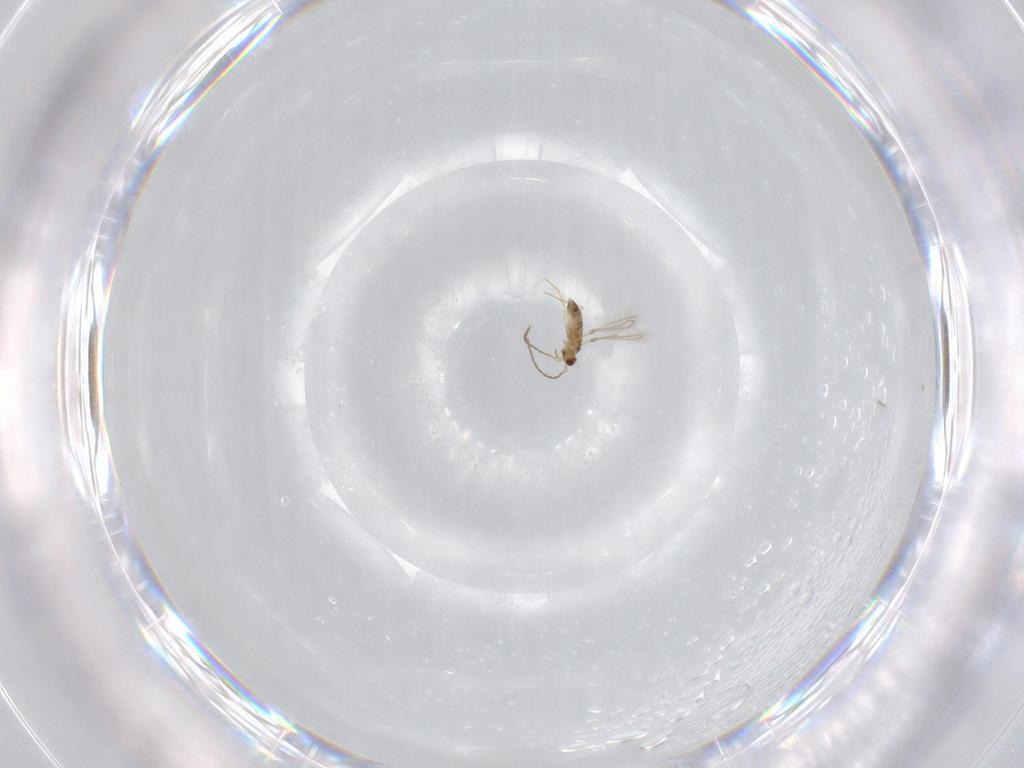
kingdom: Animalia
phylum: Arthropoda
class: Insecta
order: Hymenoptera
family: Mymaridae
